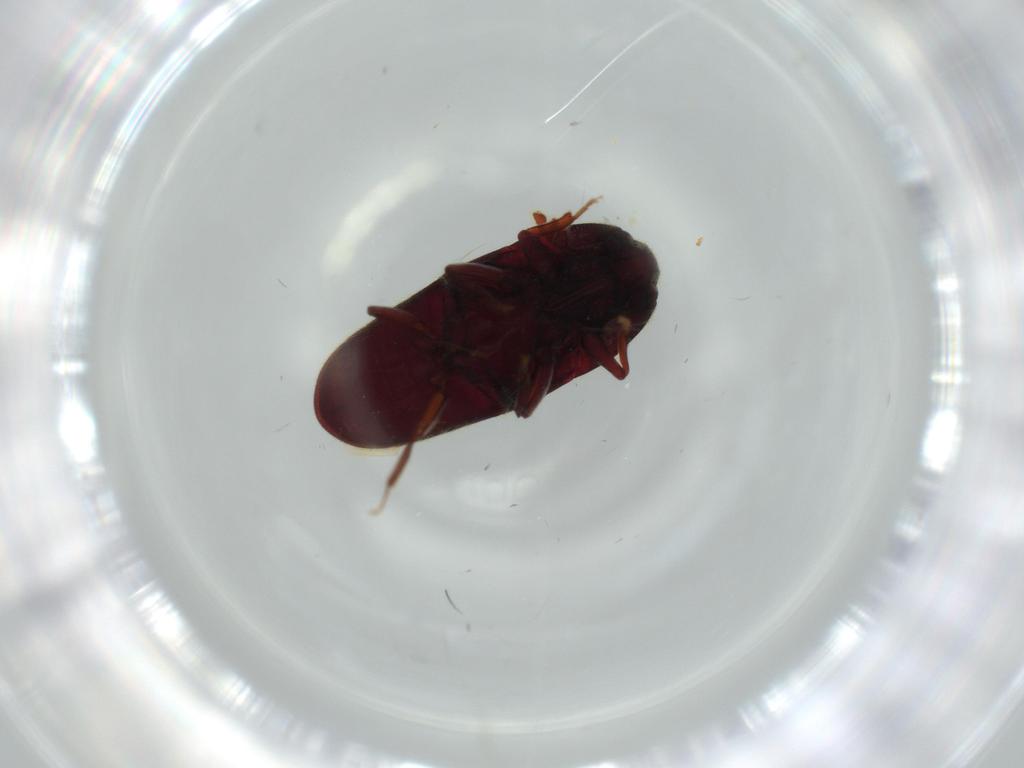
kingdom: Animalia
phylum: Arthropoda
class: Insecta
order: Coleoptera
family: Throscidae
